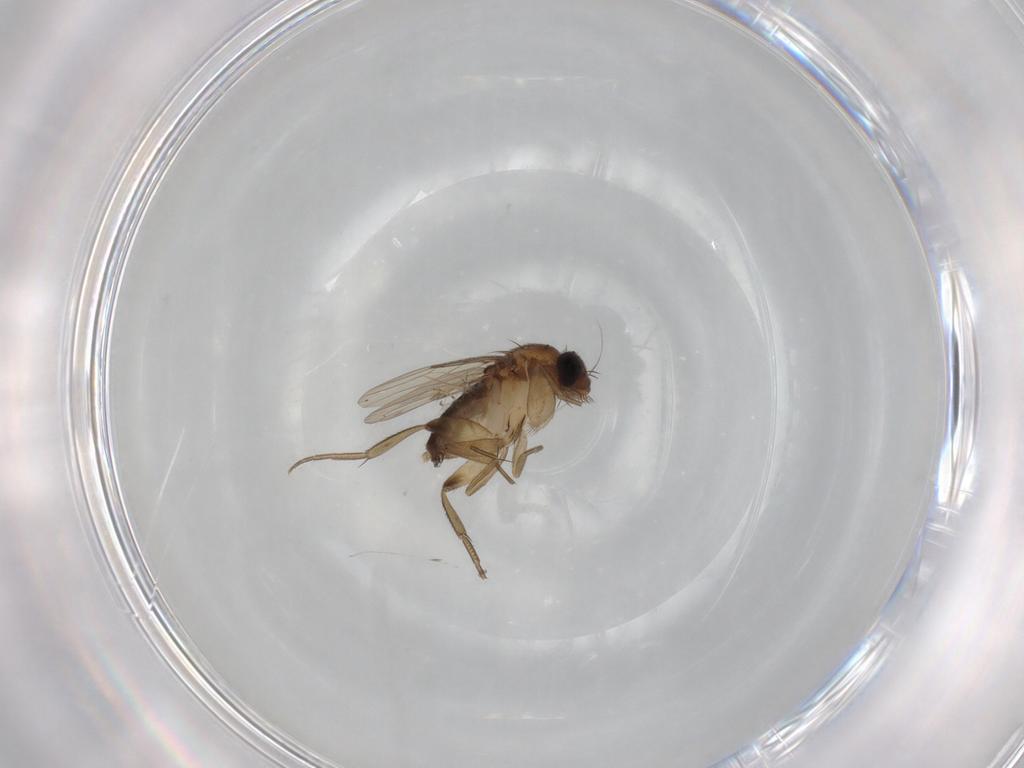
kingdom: Animalia
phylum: Arthropoda
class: Insecta
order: Diptera
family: Phoridae
